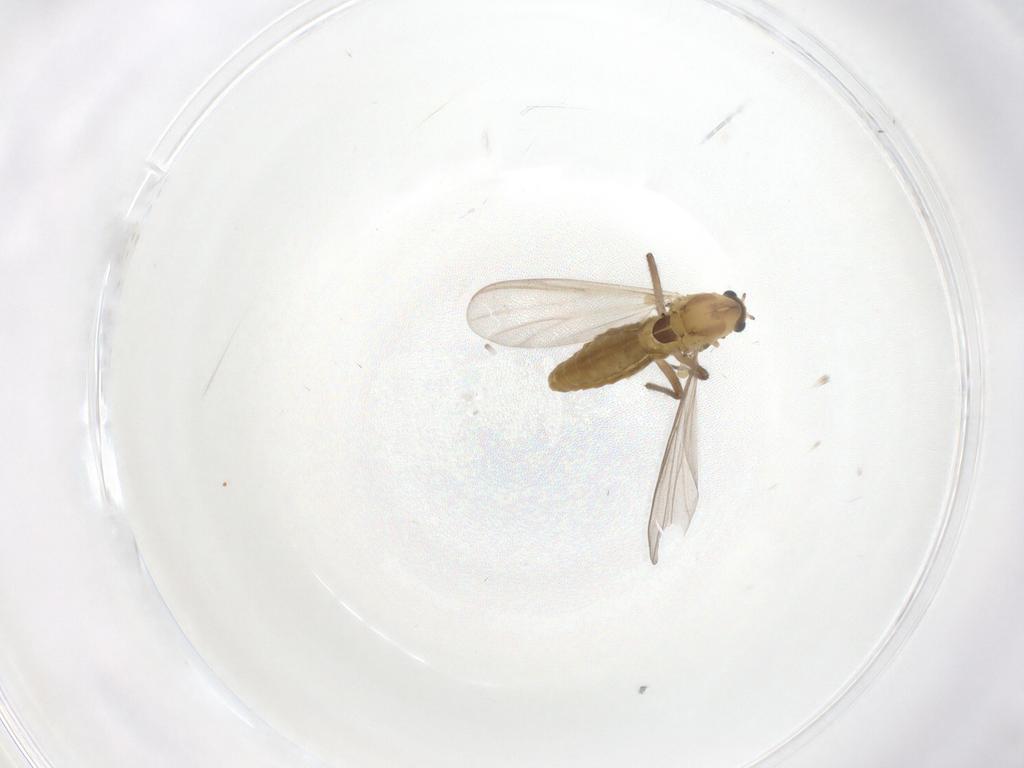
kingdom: Animalia
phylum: Arthropoda
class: Insecta
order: Diptera
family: Chironomidae
